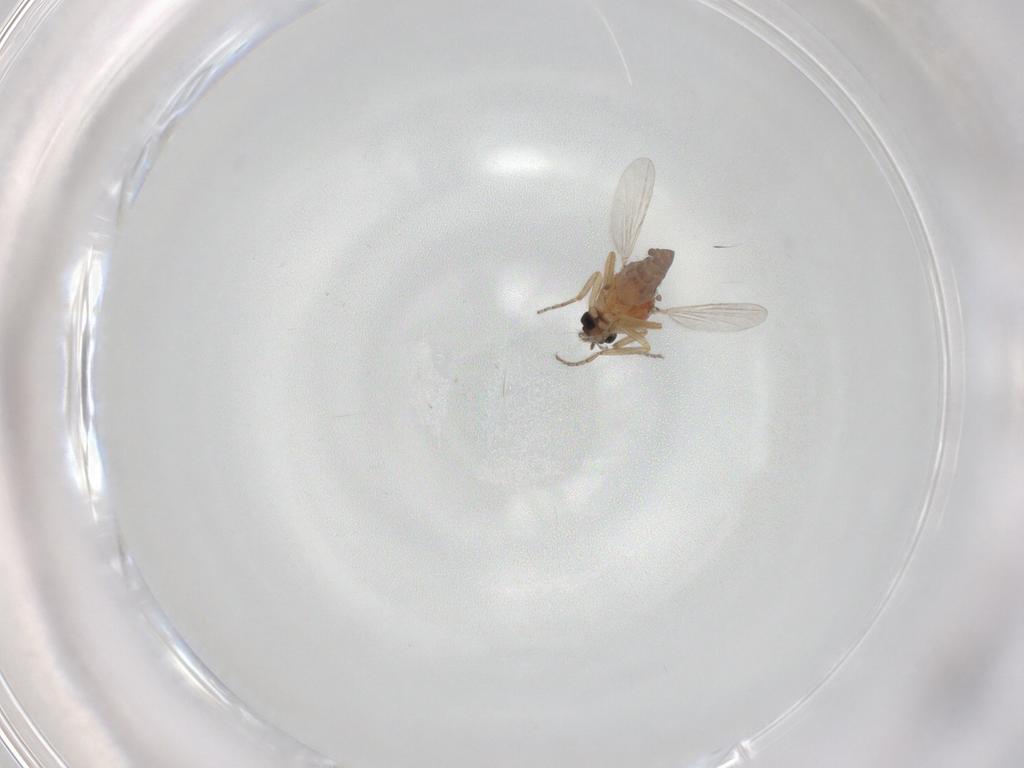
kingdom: Animalia
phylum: Arthropoda
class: Insecta
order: Diptera
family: Ceratopogonidae
